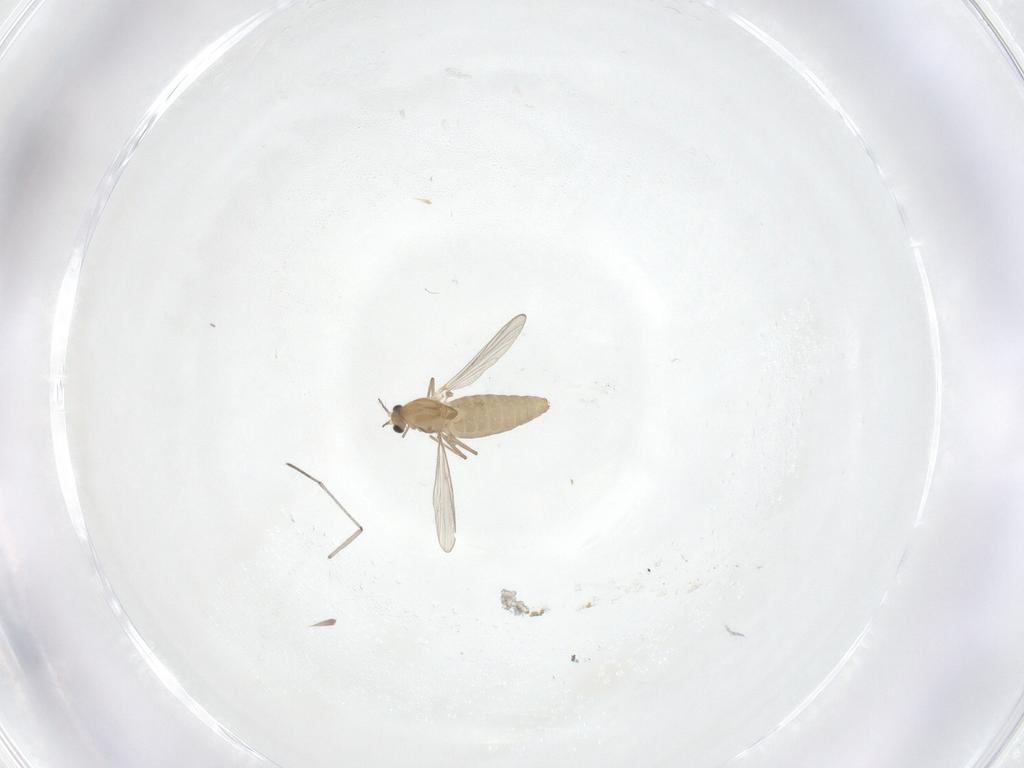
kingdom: Animalia
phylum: Arthropoda
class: Insecta
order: Diptera
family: Chironomidae
